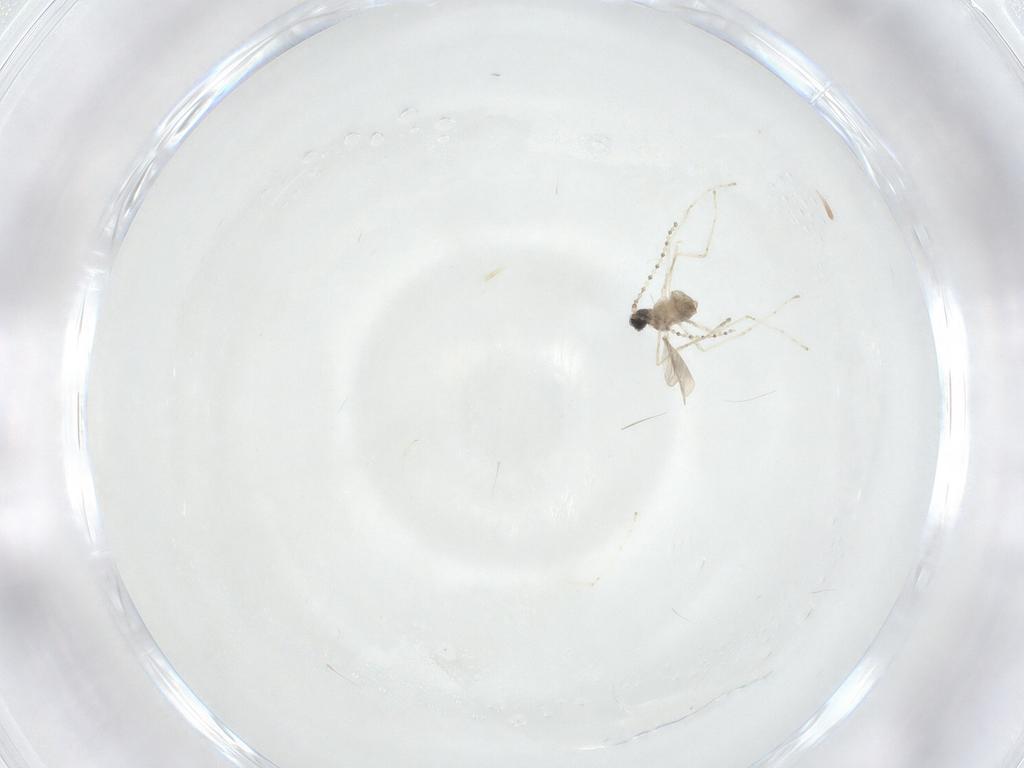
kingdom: Animalia
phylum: Arthropoda
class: Insecta
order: Diptera
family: Cecidomyiidae
